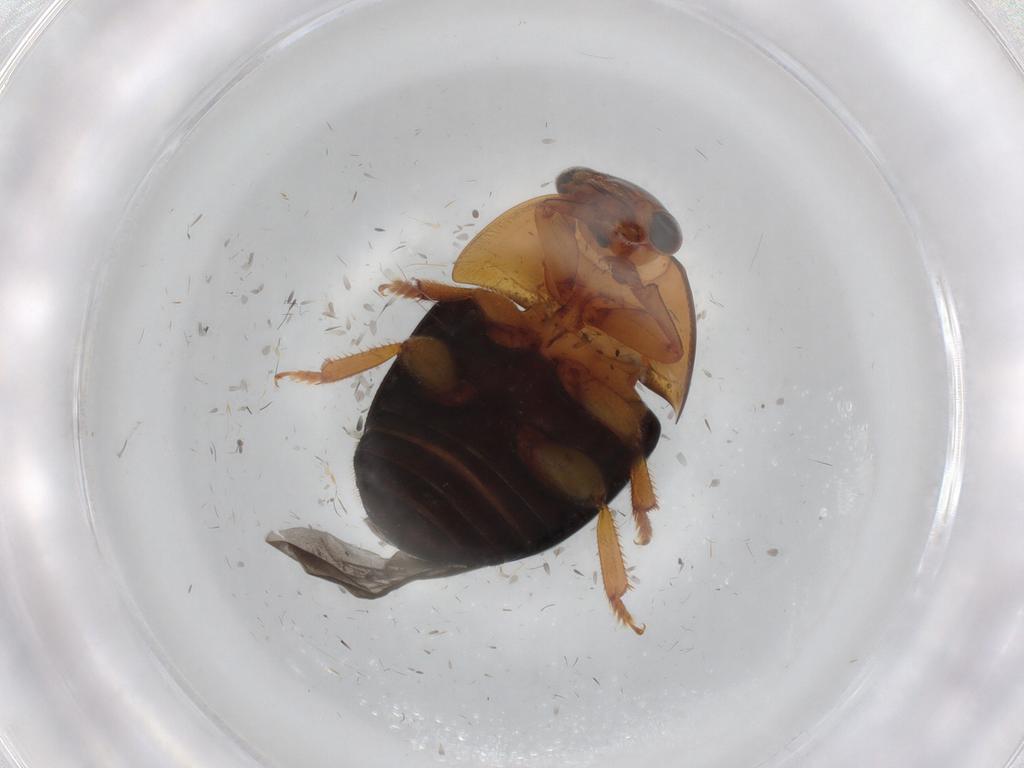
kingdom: Animalia
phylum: Arthropoda
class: Insecta
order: Coleoptera
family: Nitidulidae
